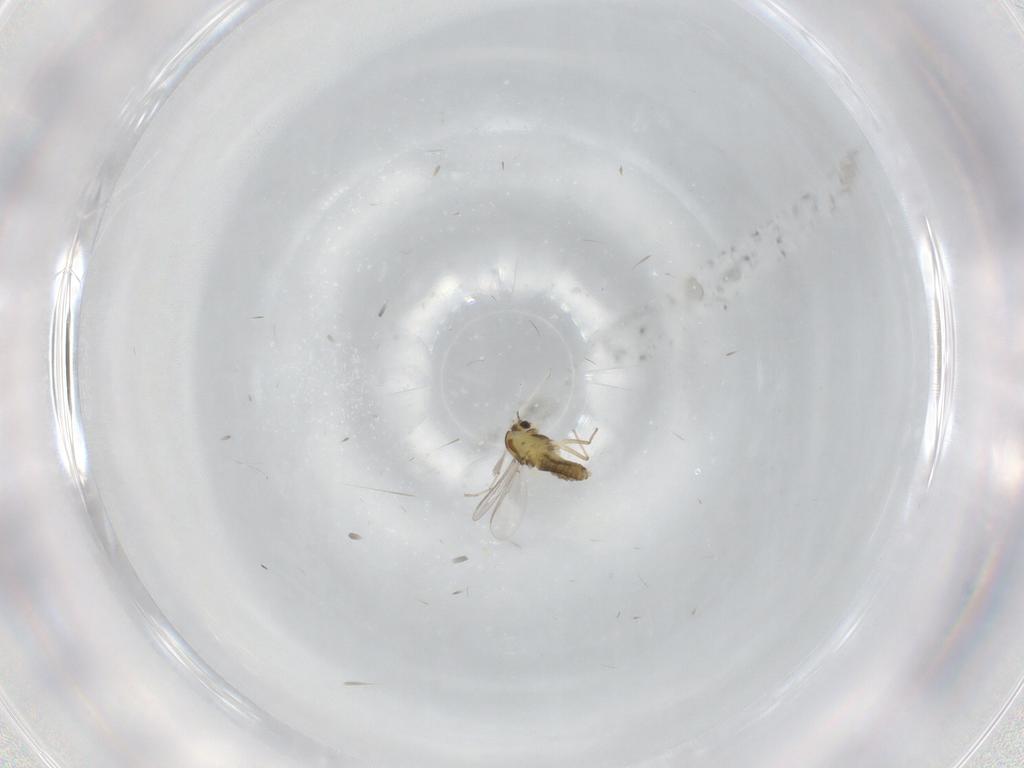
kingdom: Animalia
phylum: Arthropoda
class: Insecta
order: Diptera
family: Chironomidae
